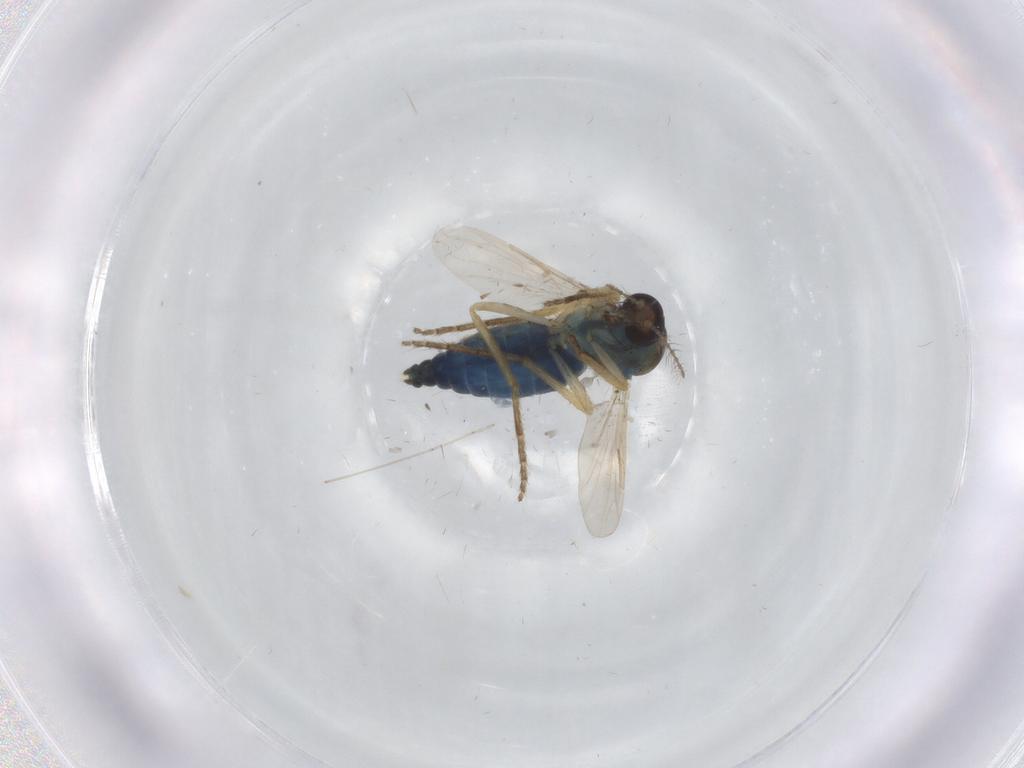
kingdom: Animalia
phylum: Arthropoda
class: Insecta
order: Diptera
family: Ceratopogonidae
